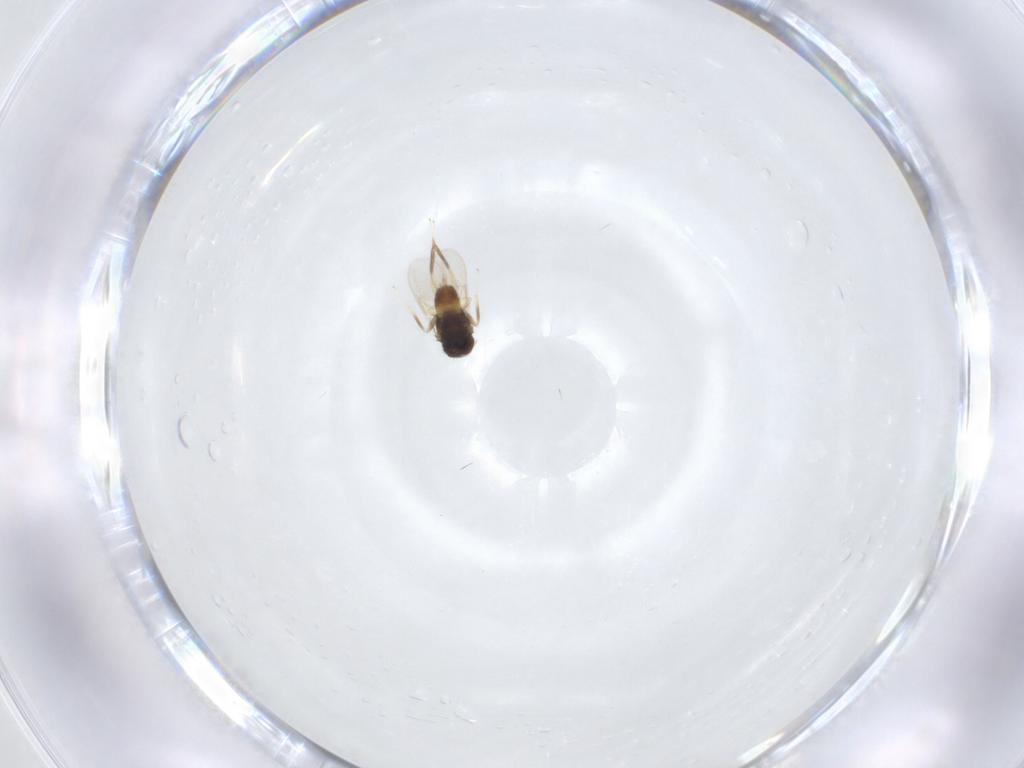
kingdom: Animalia
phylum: Arthropoda
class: Insecta
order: Hymenoptera
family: Aphelinidae
